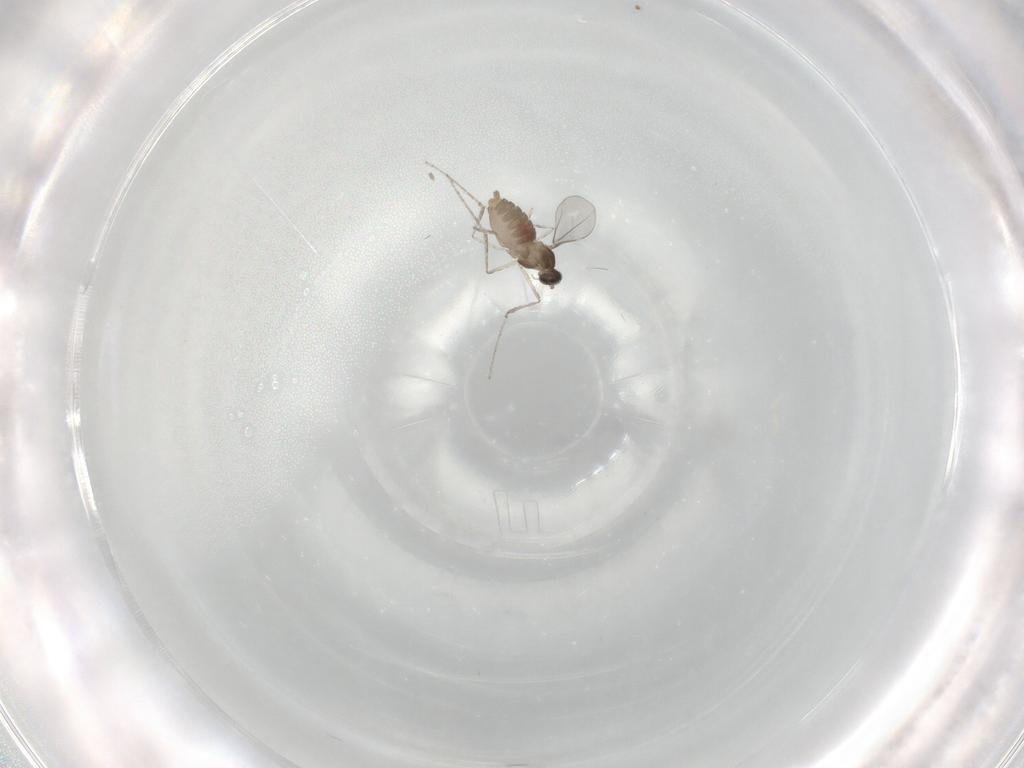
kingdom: Animalia
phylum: Arthropoda
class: Insecta
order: Diptera
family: Cecidomyiidae
